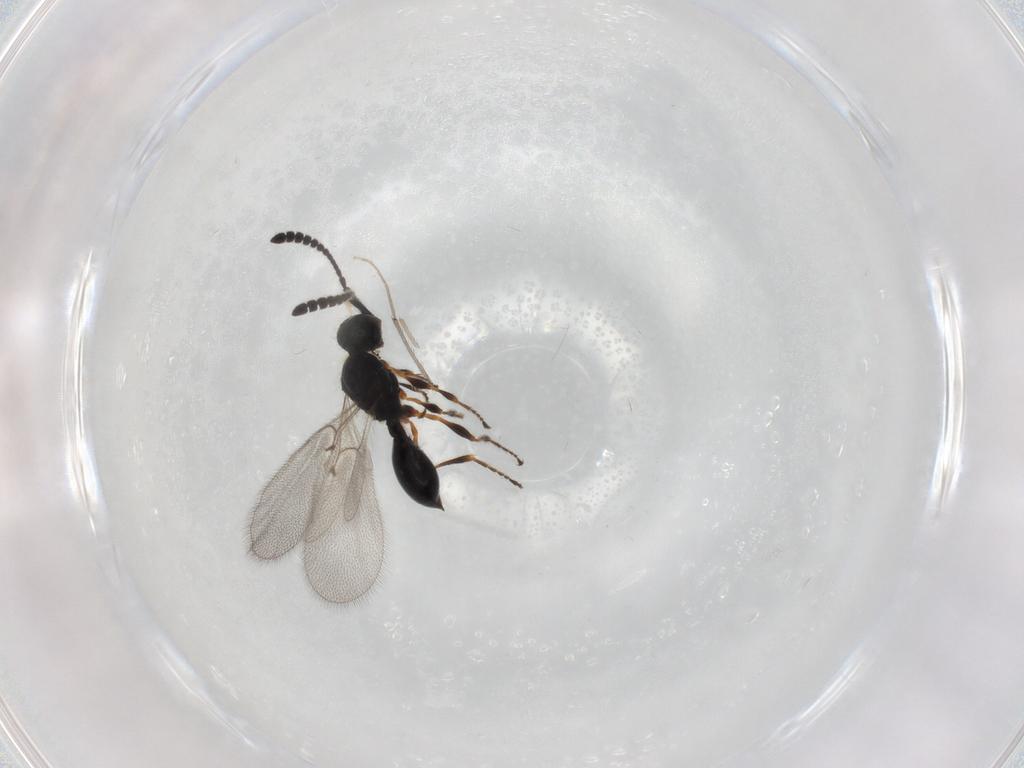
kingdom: Animalia
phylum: Arthropoda
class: Insecta
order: Hymenoptera
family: Diapriidae
